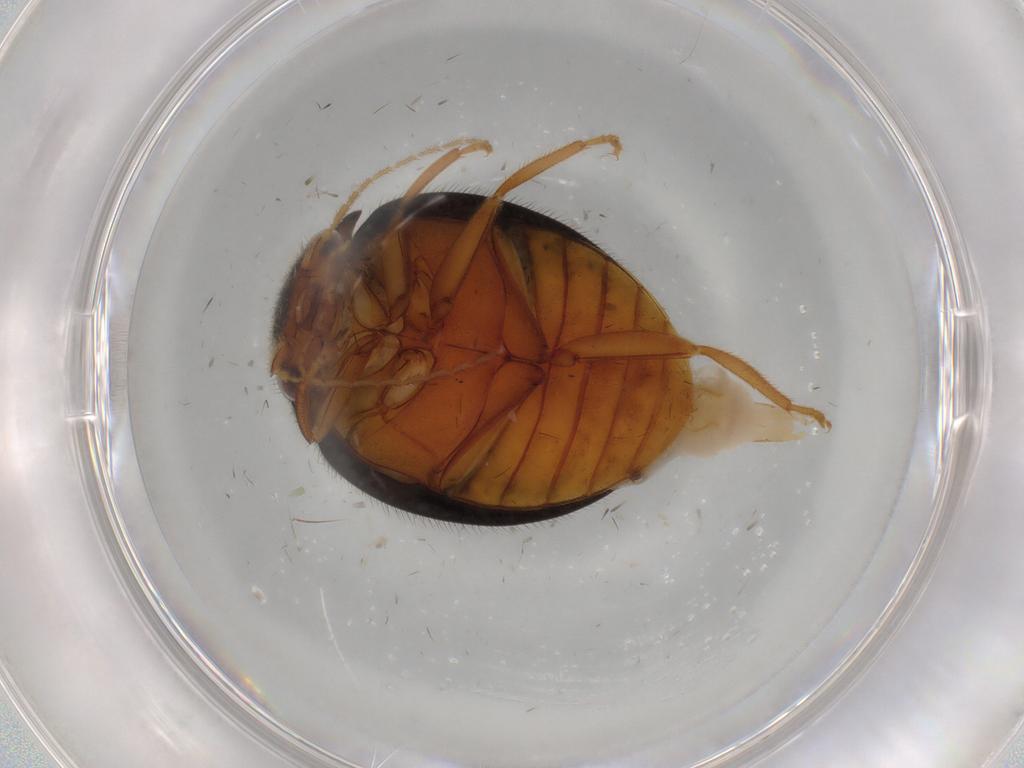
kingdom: Animalia
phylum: Arthropoda
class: Insecta
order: Coleoptera
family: Scirtidae
